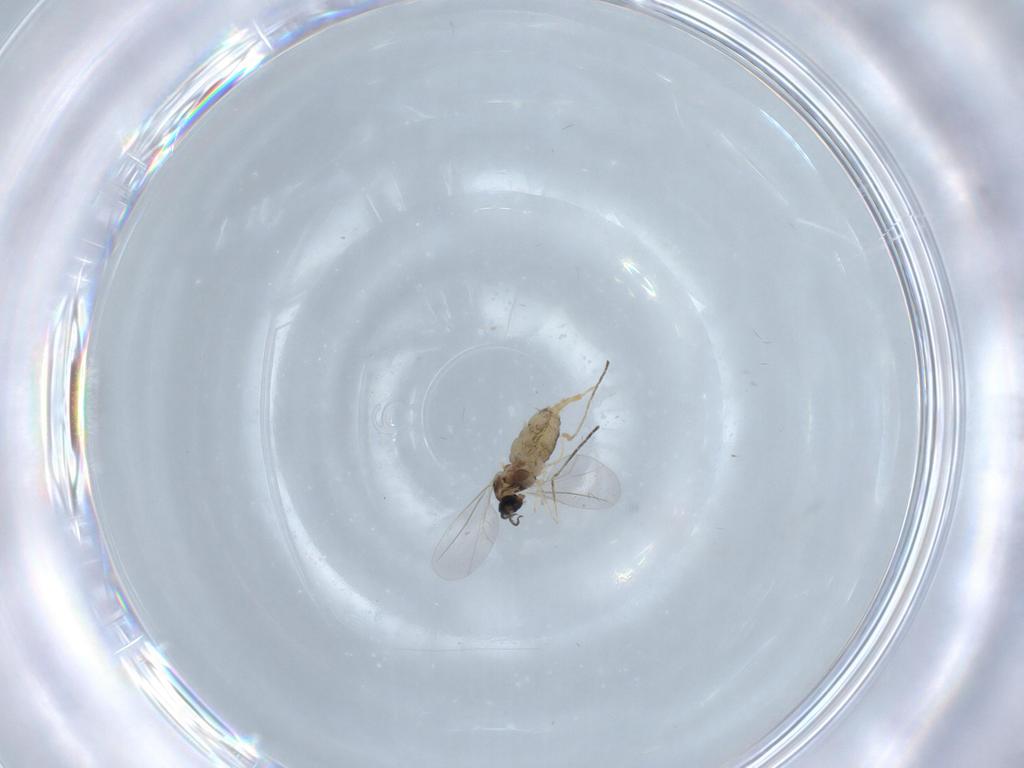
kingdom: Animalia
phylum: Arthropoda
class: Insecta
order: Diptera
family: Cecidomyiidae
